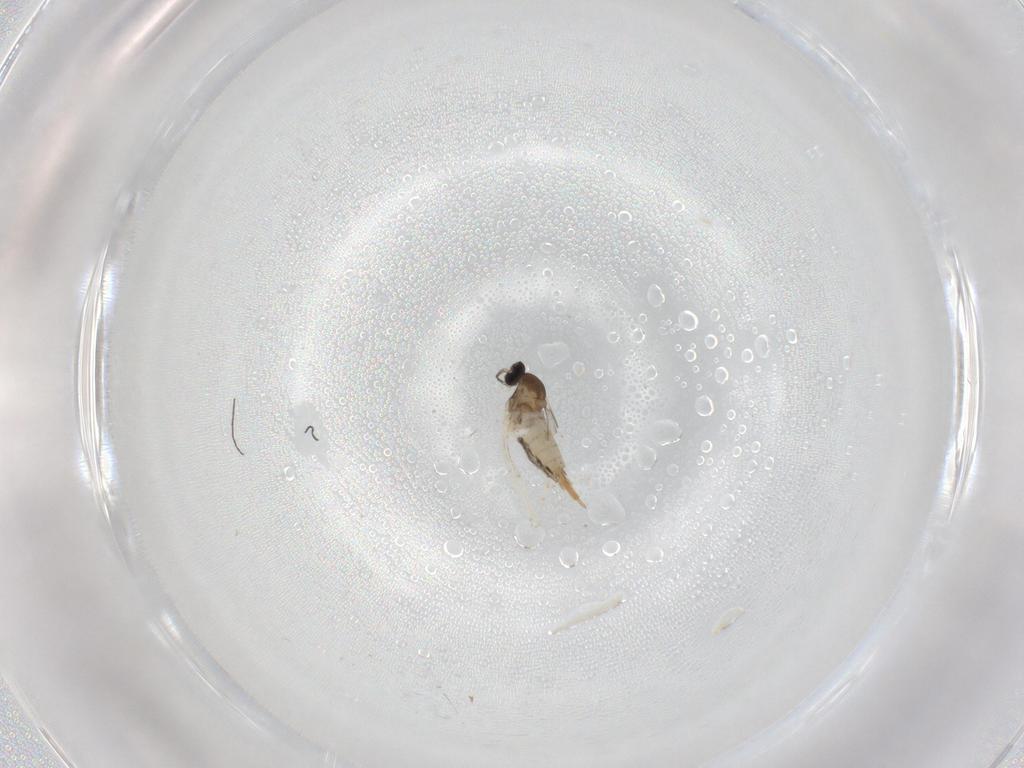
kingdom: Animalia
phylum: Arthropoda
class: Insecta
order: Diptera
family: Cecidomyiidae
